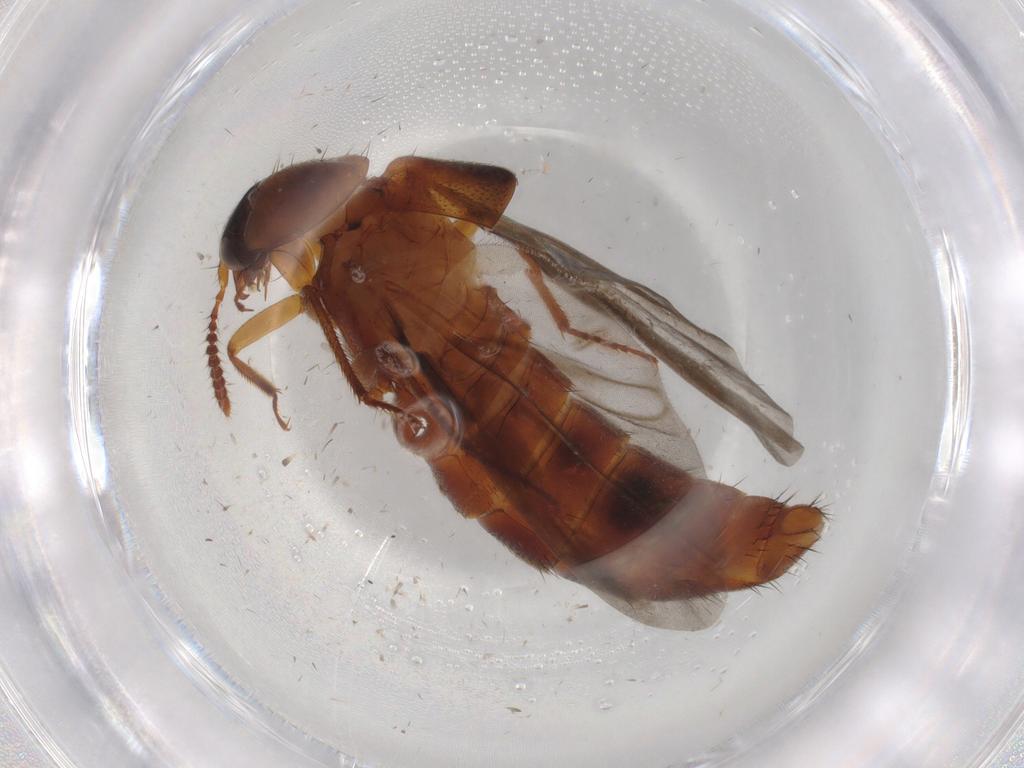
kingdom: Animalia
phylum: Arthropoda
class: Insecta
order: Coleoptera
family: Staphylinidae
